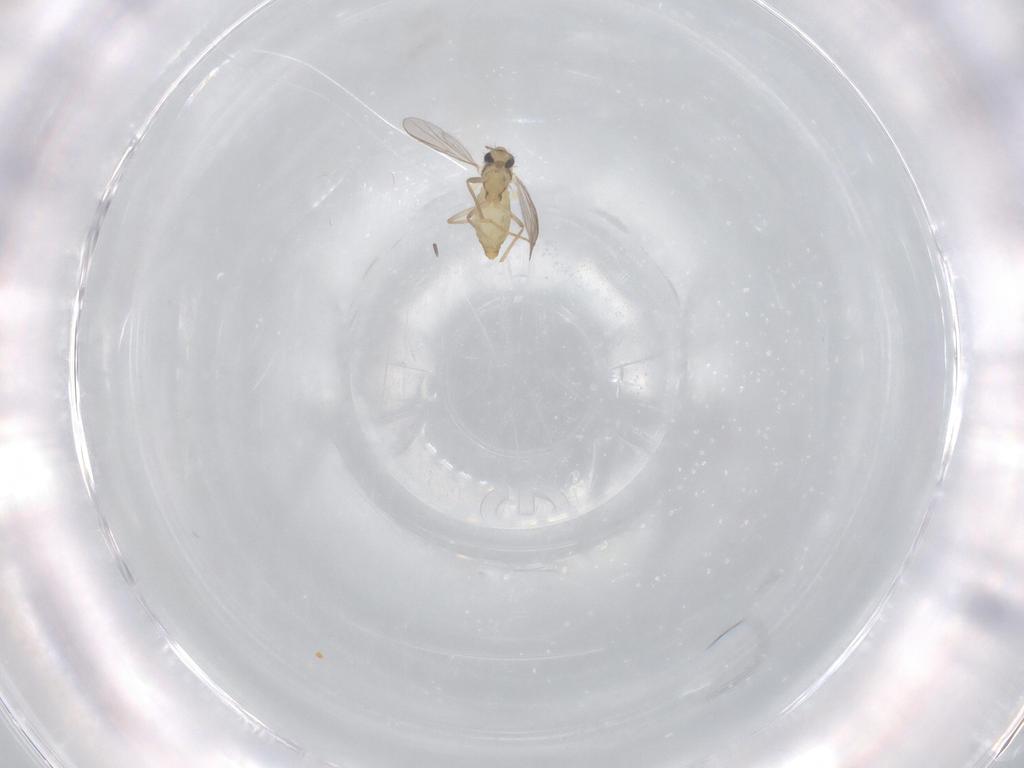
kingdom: Animalia
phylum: Arthropoda
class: Insecta
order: Diptera
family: Chironomidae
